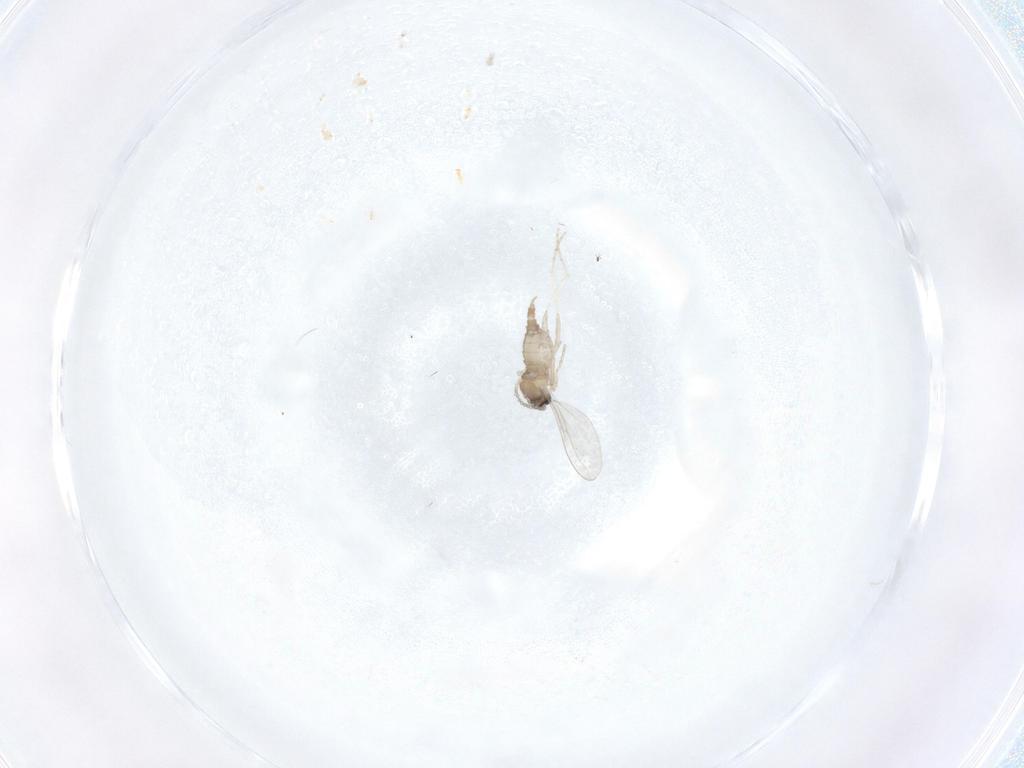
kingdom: Animalia
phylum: Arthropoda
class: Insecta
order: Diptera
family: Cecidomyiidae
